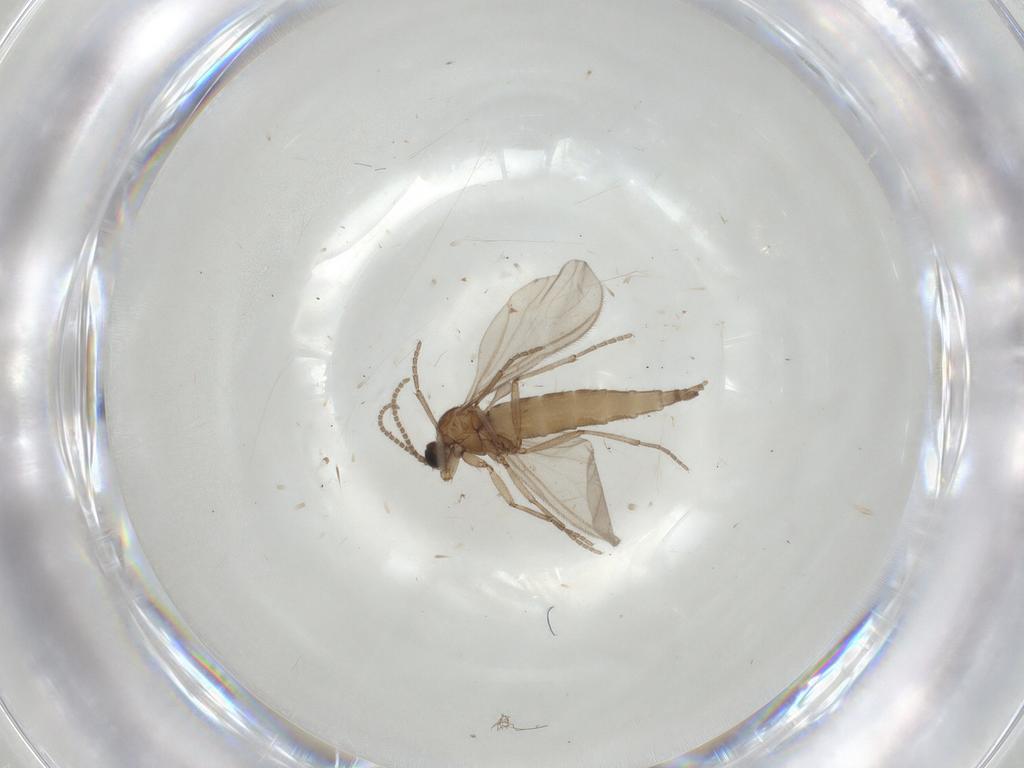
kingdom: Animalia
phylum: Arthropoda
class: Insecta
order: Diptera
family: Sciaridae
